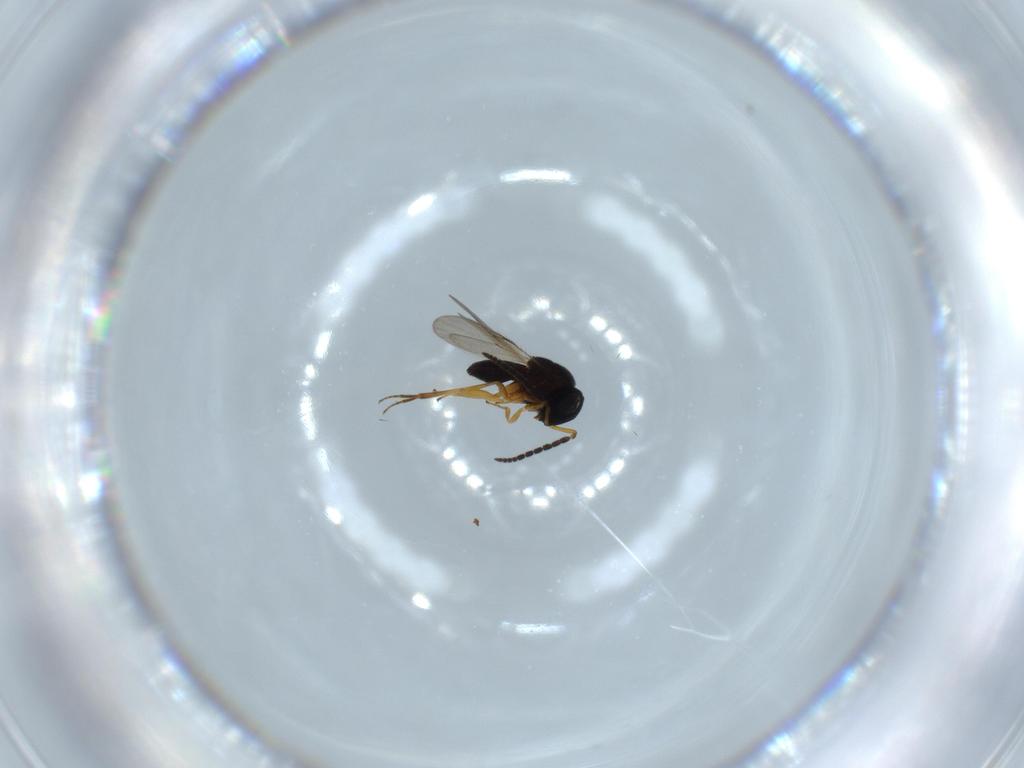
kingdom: Animalia
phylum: Arthropoda
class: Insecta
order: Hymenoptera
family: Scelionidae
